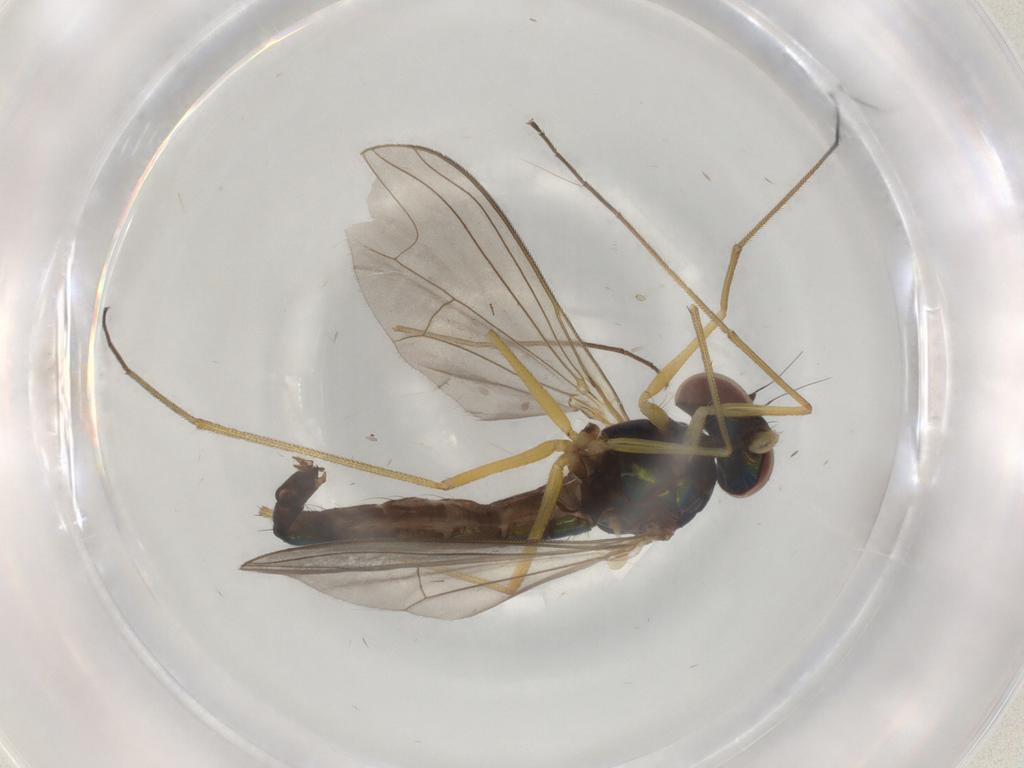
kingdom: Animalia
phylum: Arthropoda
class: Insecta
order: Diptera
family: Dolichopodidae
